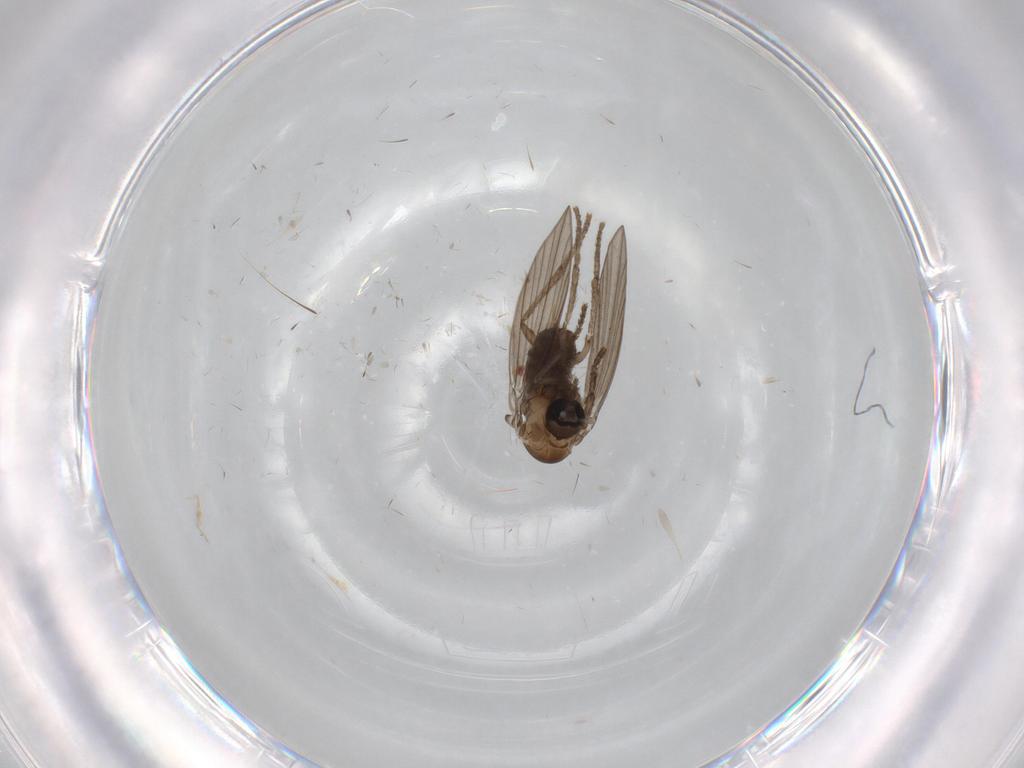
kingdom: Animalia
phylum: Arthropoda
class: Insecta
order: Diptera
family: Psychodidae
